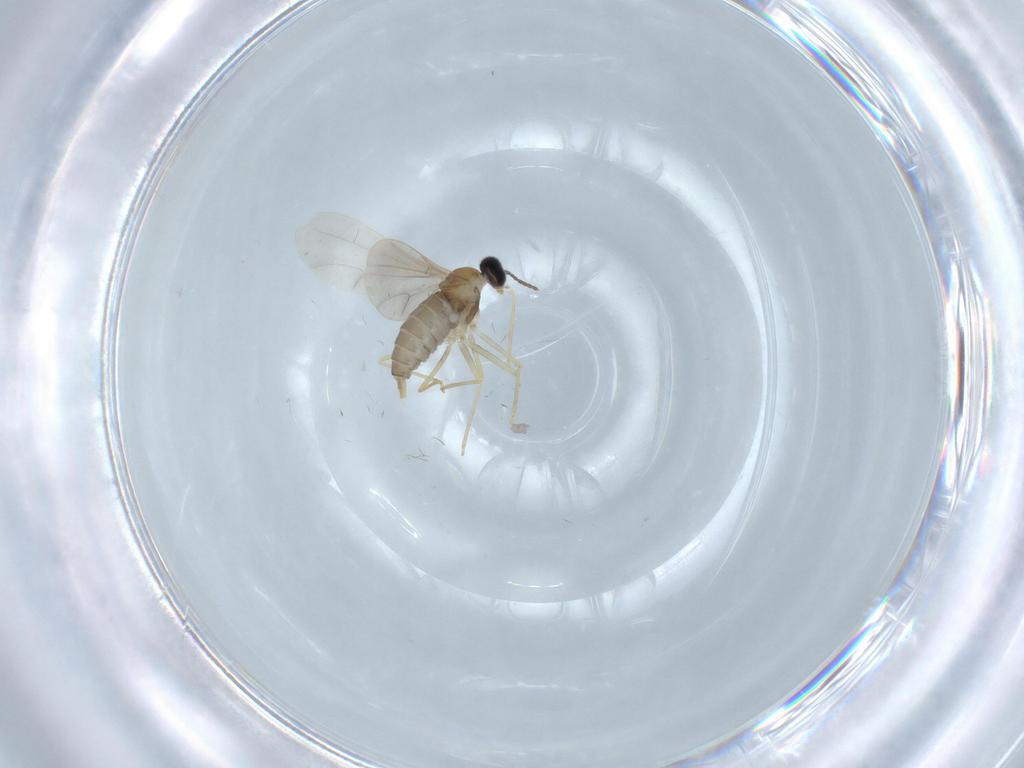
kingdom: Animalia
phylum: Arthropoda
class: Insecta
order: Diptera
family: Cecidomyiidae
